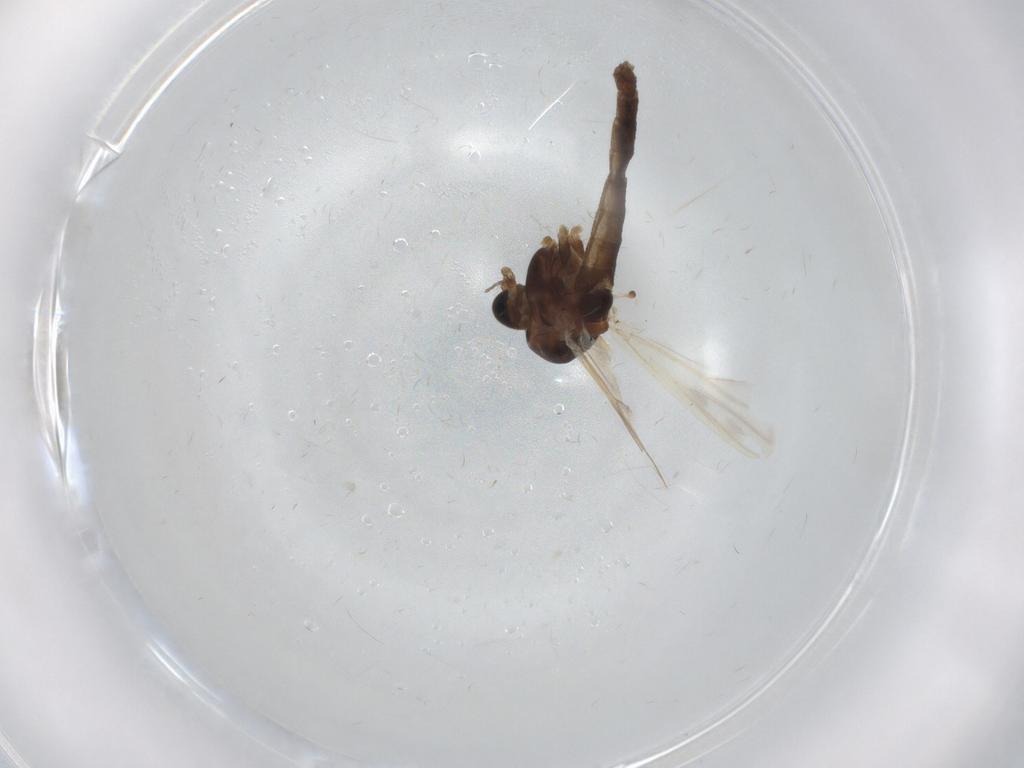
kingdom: Animalia
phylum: Arthropoda
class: Insecta
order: Diptera
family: Chironomidae
